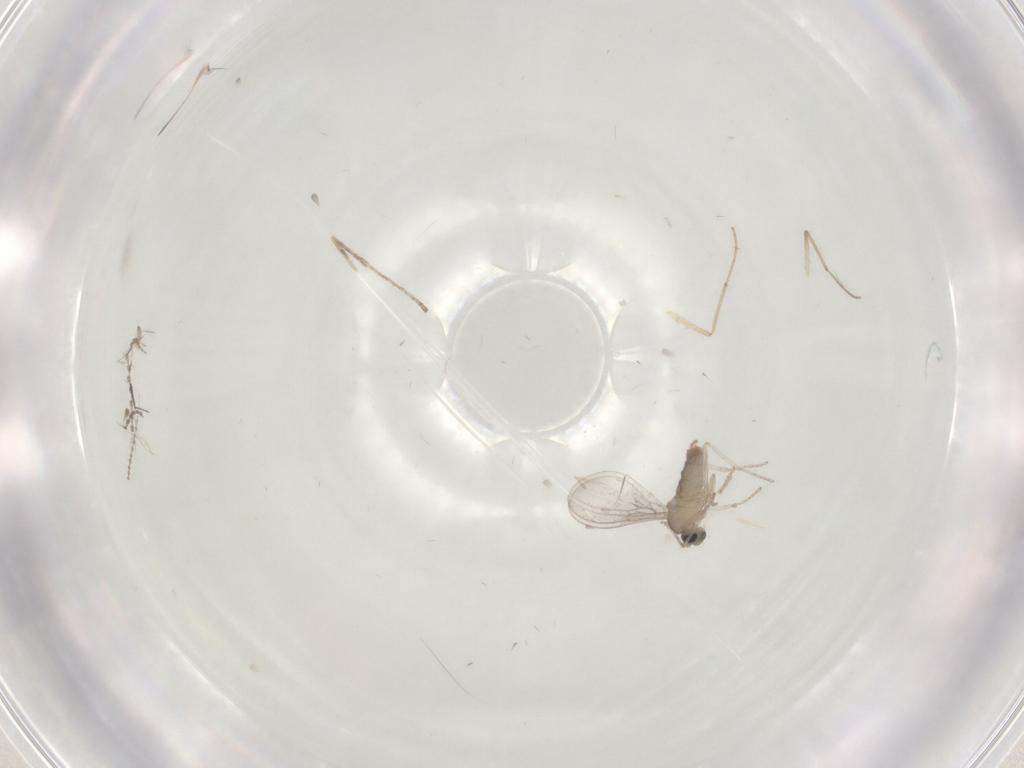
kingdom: Animalia
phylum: Arthropoda
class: Insecta
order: Diptera
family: Cecidomyiidae
